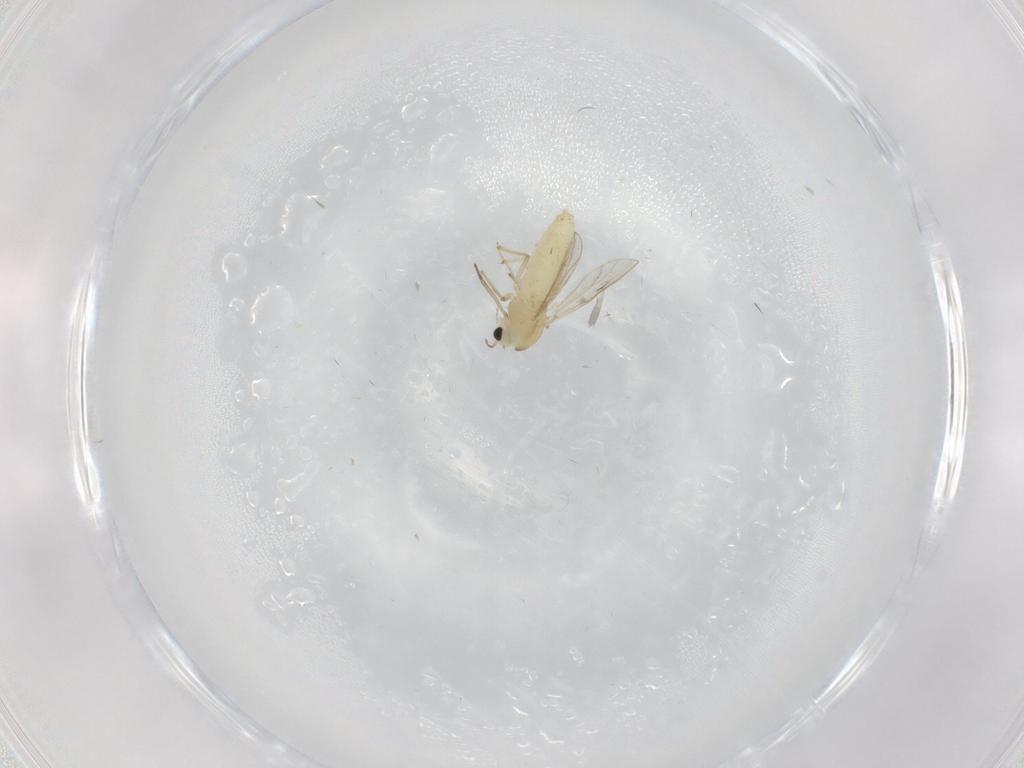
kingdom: Animalia
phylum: Arthropoda
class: Insecta
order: Diptera
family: Chironomidae
